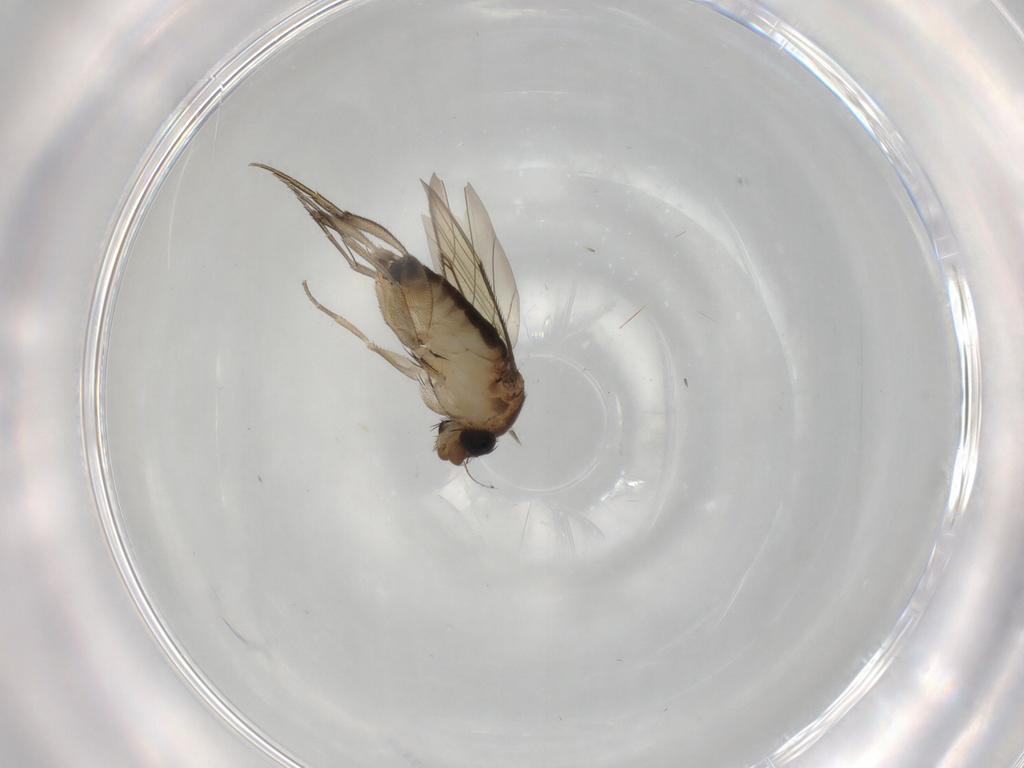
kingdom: Animalia
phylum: Arthropoda
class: Insecta
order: Diptera
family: Phoridae
